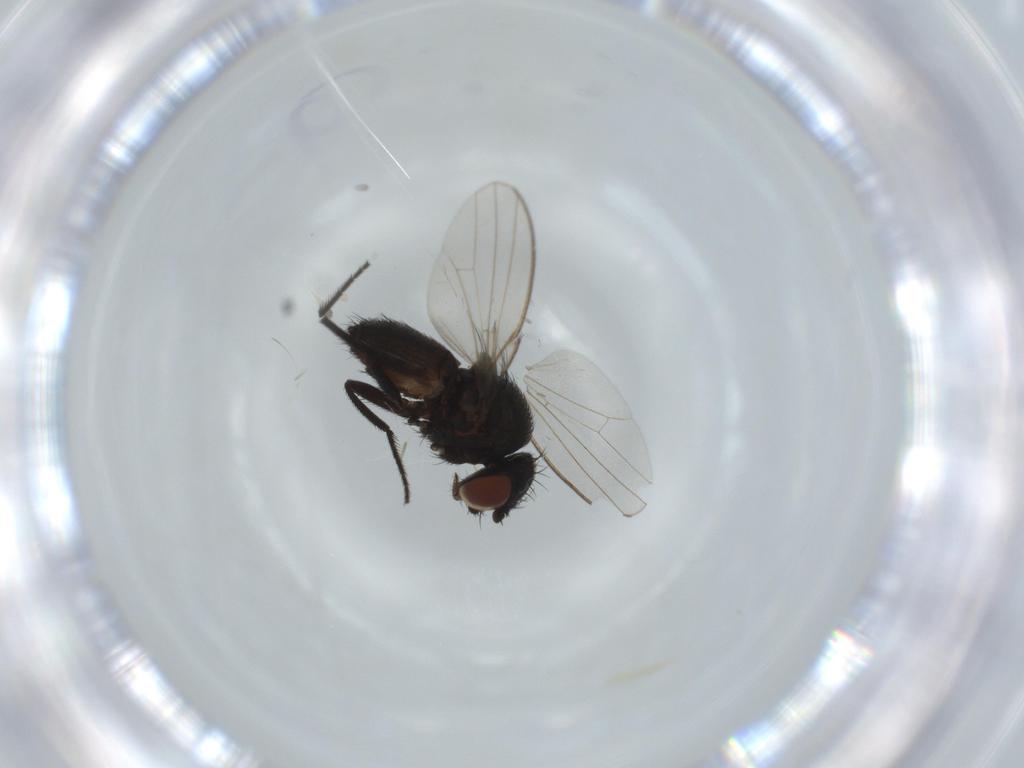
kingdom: Animalia
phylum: Arthropoda
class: Insecta
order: Diptera
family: Milichiidae
